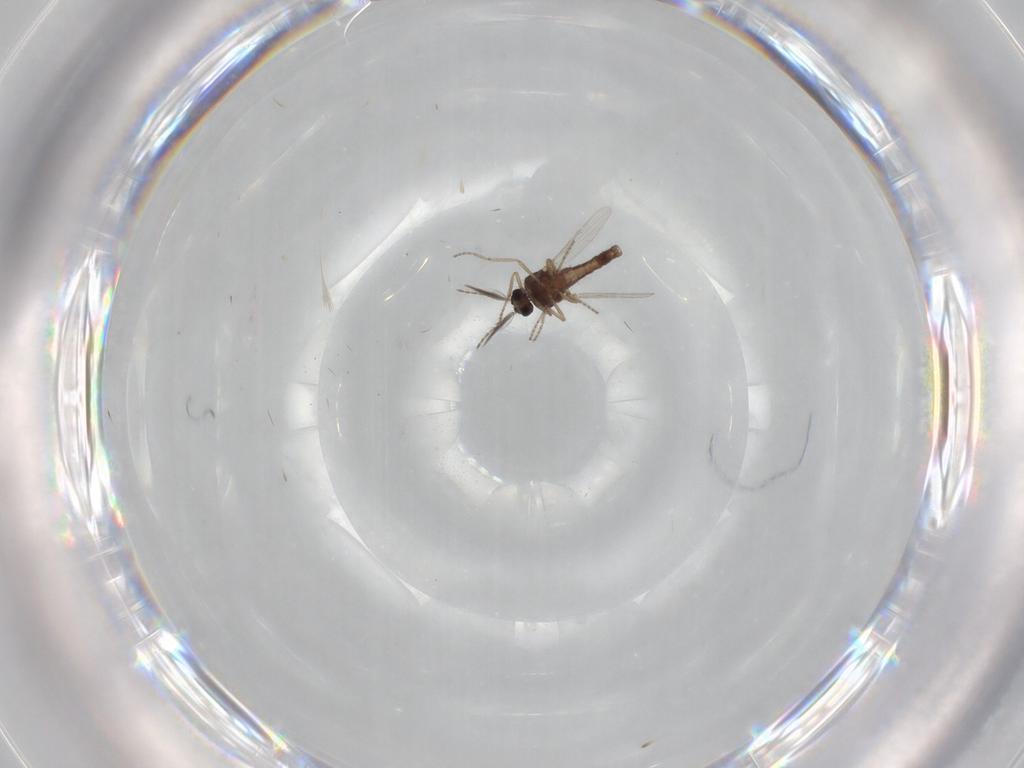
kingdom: Animalia
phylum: Arthropoda
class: Insecta
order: Diptera
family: Ceratopogonidae
